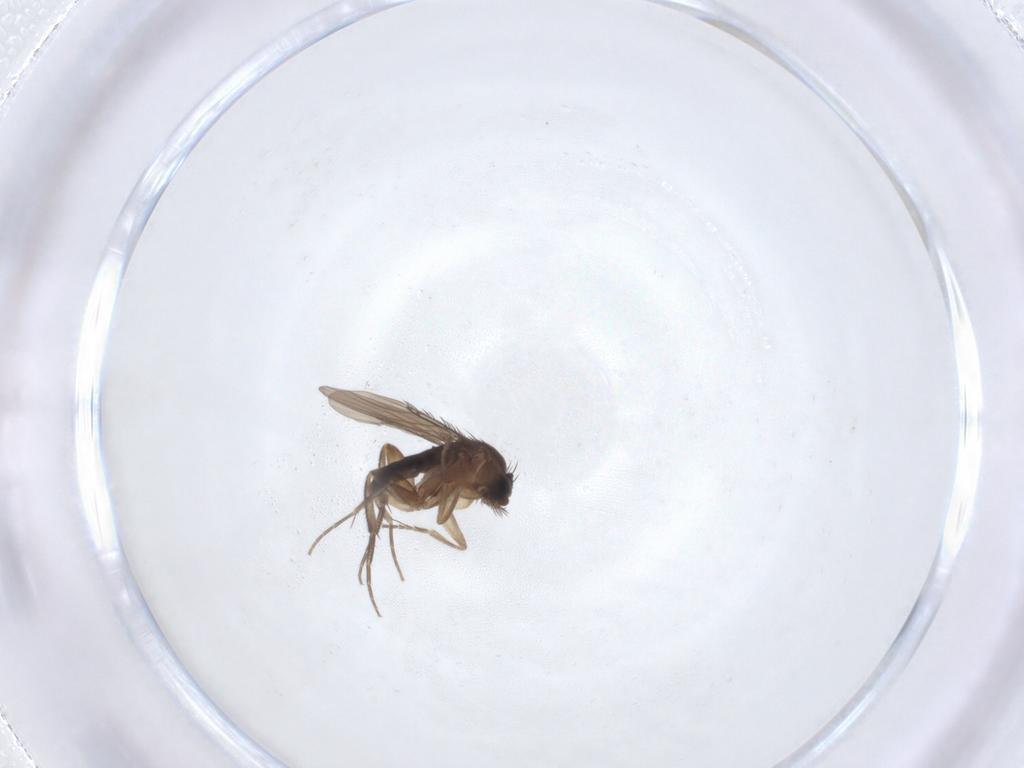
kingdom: Animalia
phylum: Arthropoda
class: Insecta
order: Diptera
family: Phoridae
